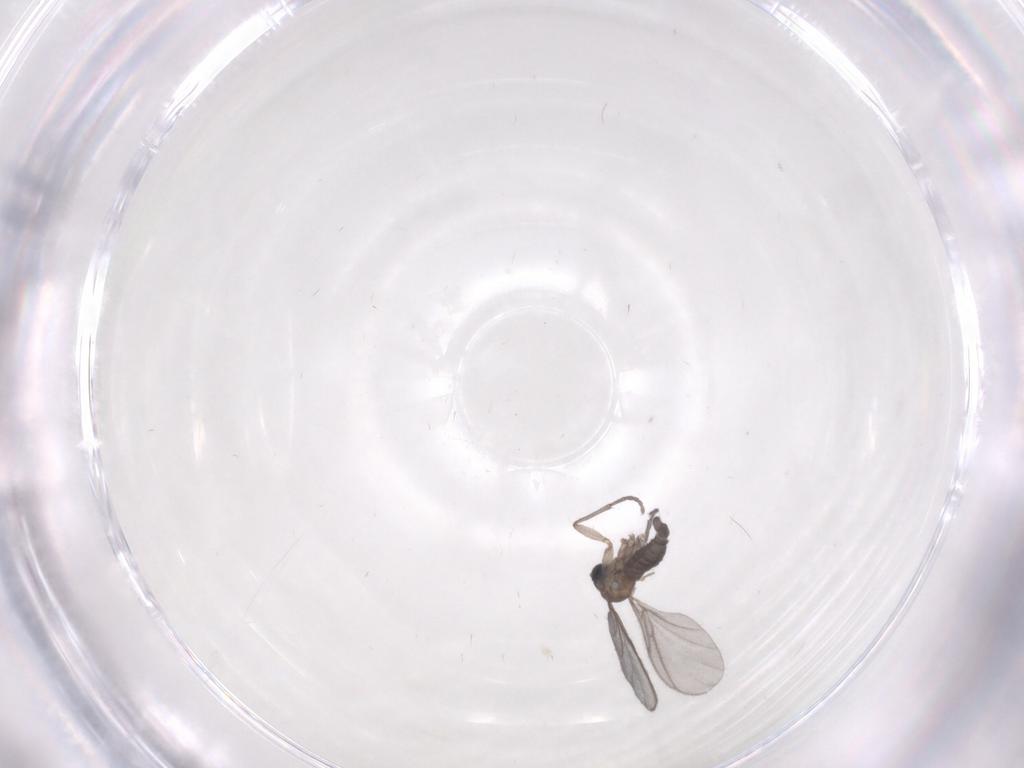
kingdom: Animalia
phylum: Arthropoda
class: Insecta
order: Diptera
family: Sciaridae
